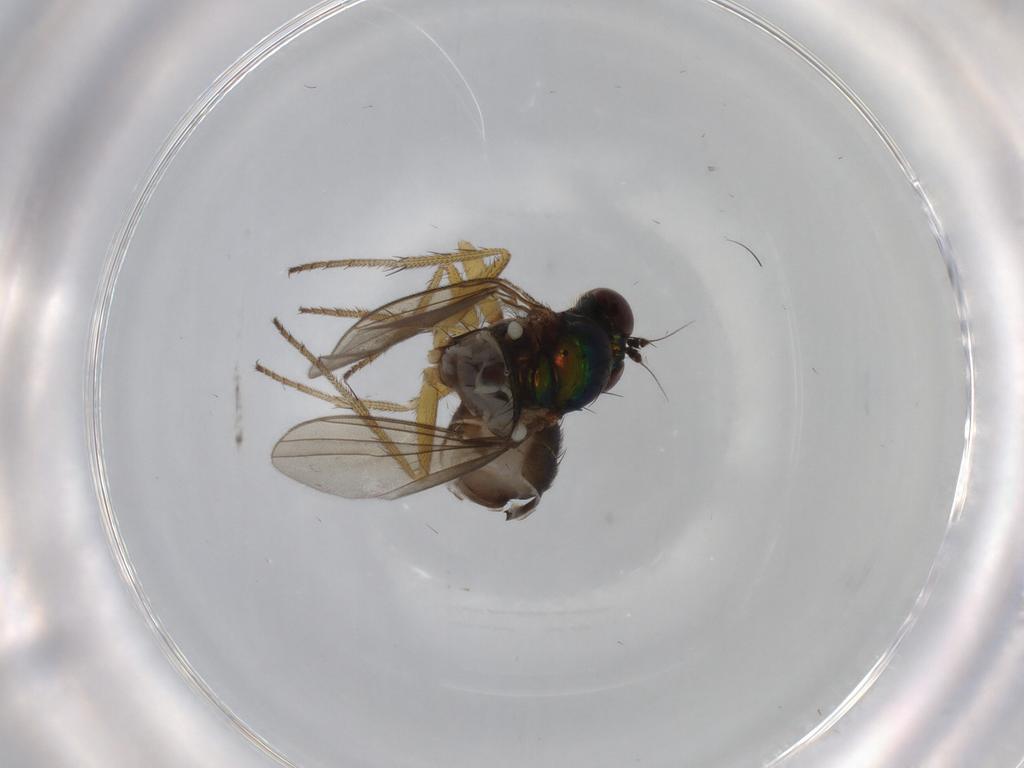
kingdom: Animalia
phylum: Arthropoda
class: Insecta
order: Diptera
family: Dolichopodidae
